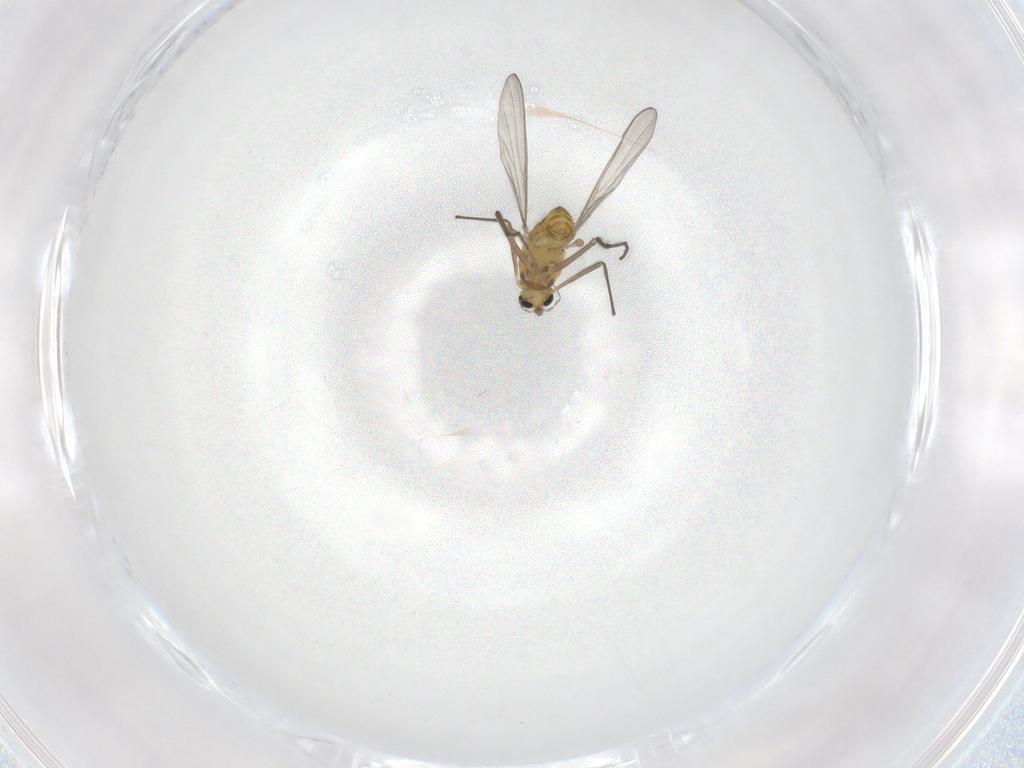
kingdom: Animalia
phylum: Arthropoda
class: Insecta
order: Diptera
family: Chironomidae
